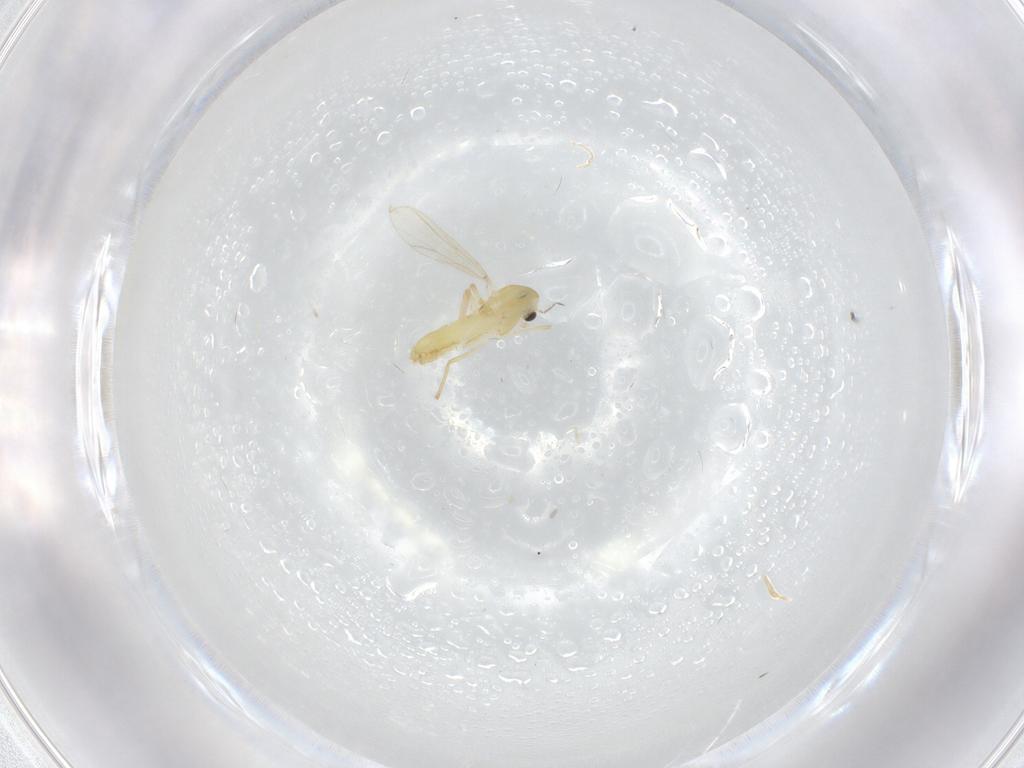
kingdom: Animalia
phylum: Arthropoda
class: Insecta
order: Diptera
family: Chironomidae
